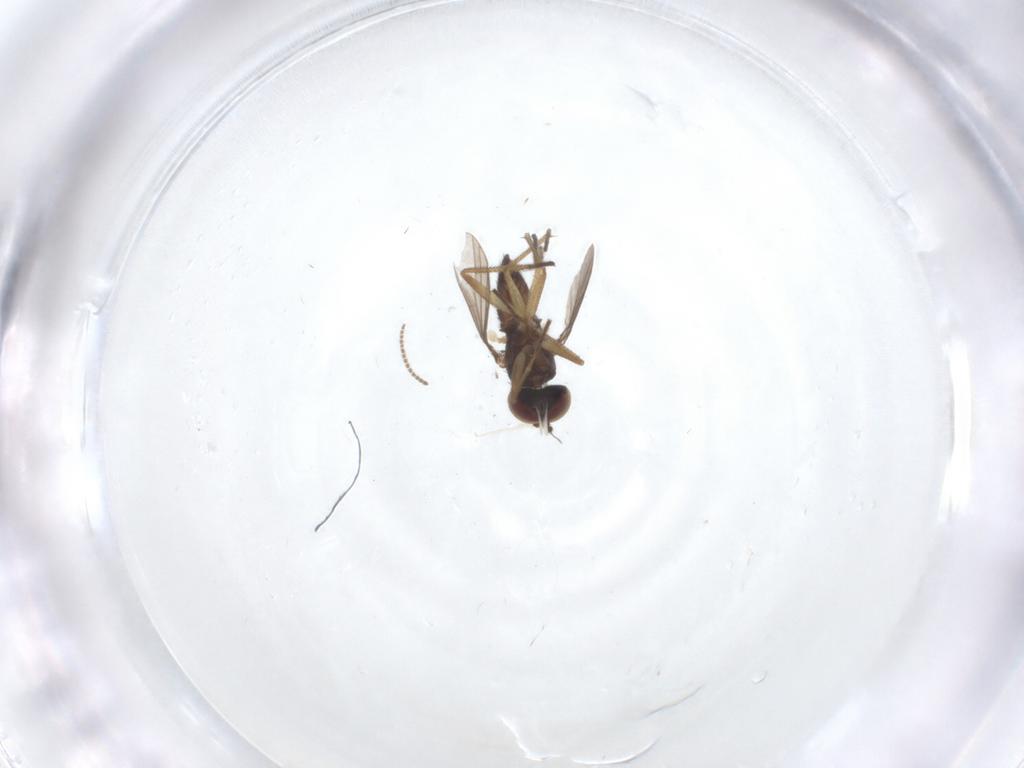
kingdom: Animalia
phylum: Arthropoda
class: Insecta
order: Diptera
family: Dolichopodidae
